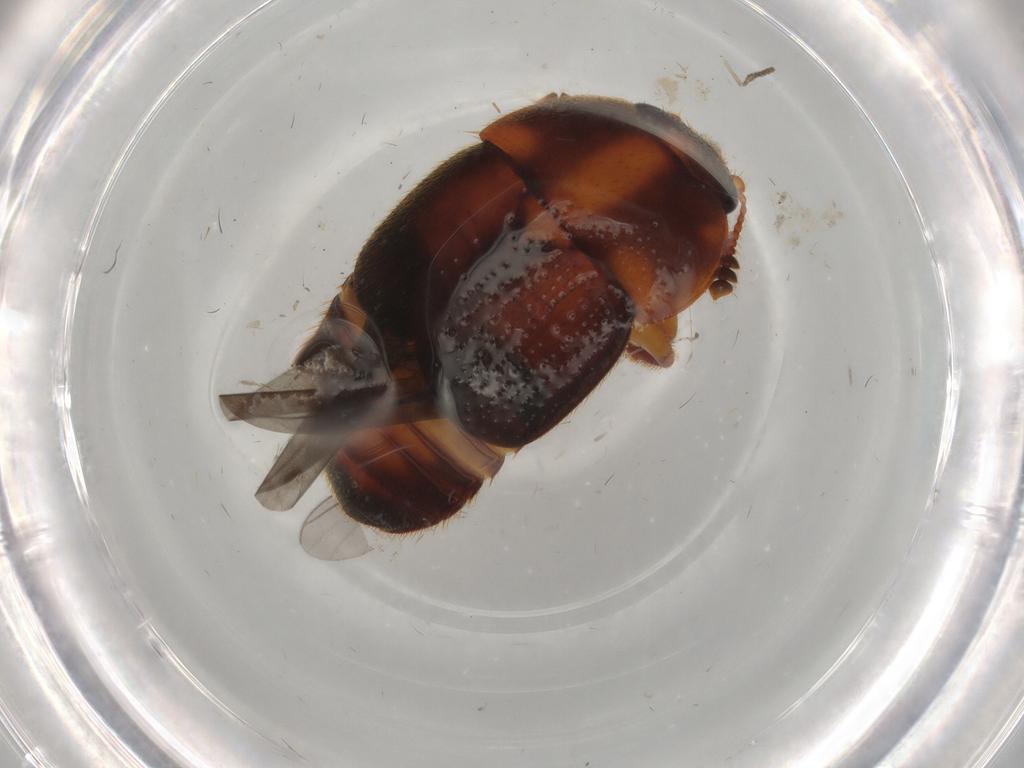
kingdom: Animalia
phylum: Arthropoda
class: Insecta
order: Coleoptera
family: Nitidulidae
